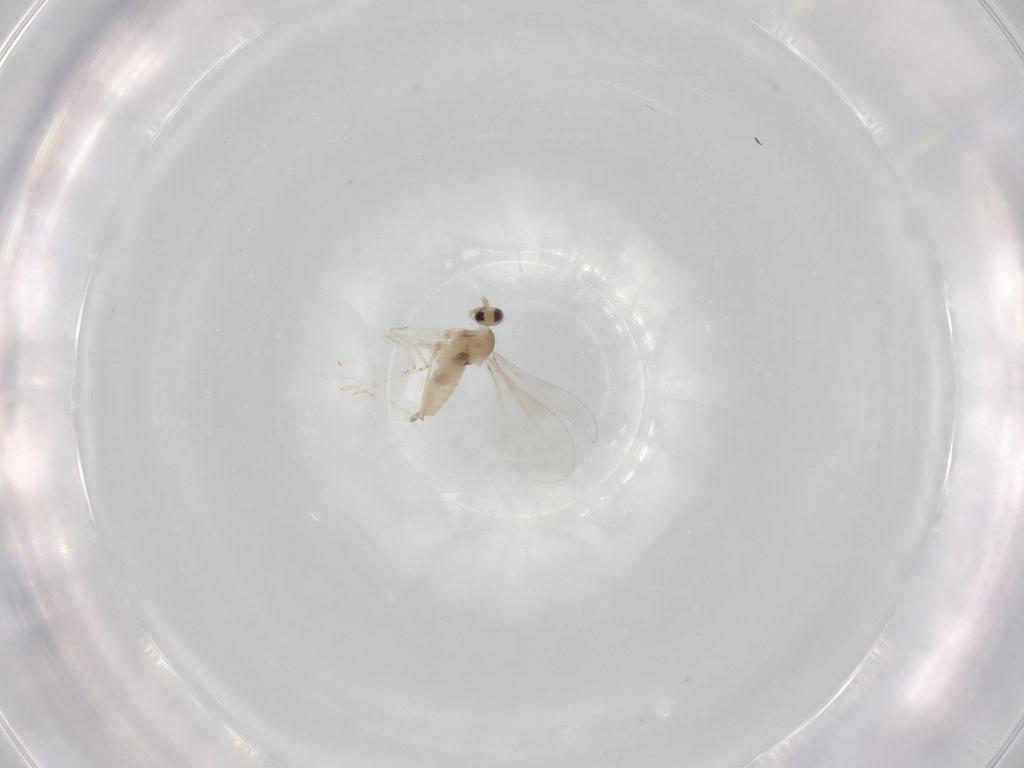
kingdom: Animalia
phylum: Arthropoda
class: Insecta
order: Diptera
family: Cecidomyiidae
